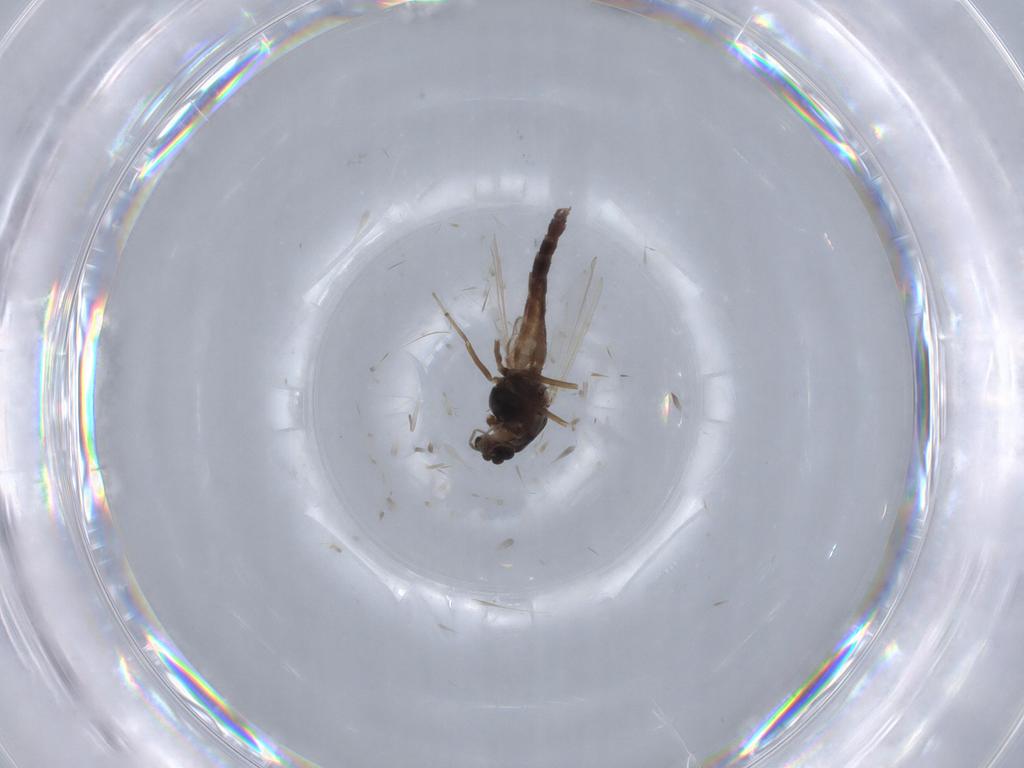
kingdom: Animalia
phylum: Arthropoda
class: Insecta
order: Diptera
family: Chironomidae
